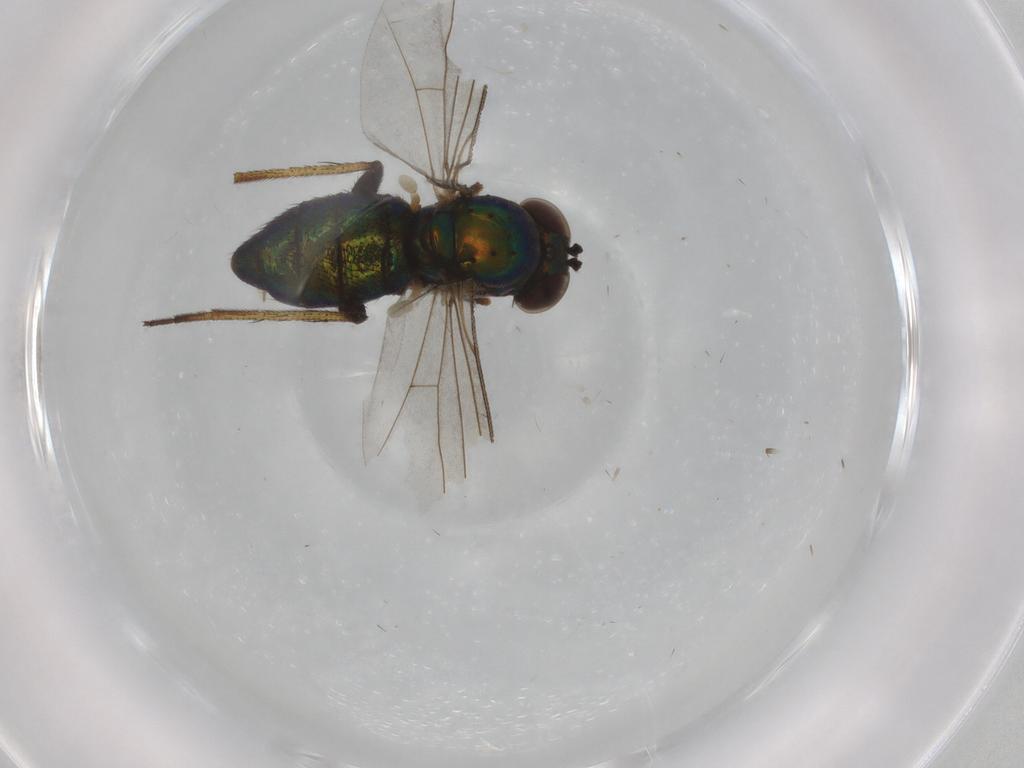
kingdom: Animalia
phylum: Arthropoda
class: Insecta
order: Diptera
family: Dolichopodidae
